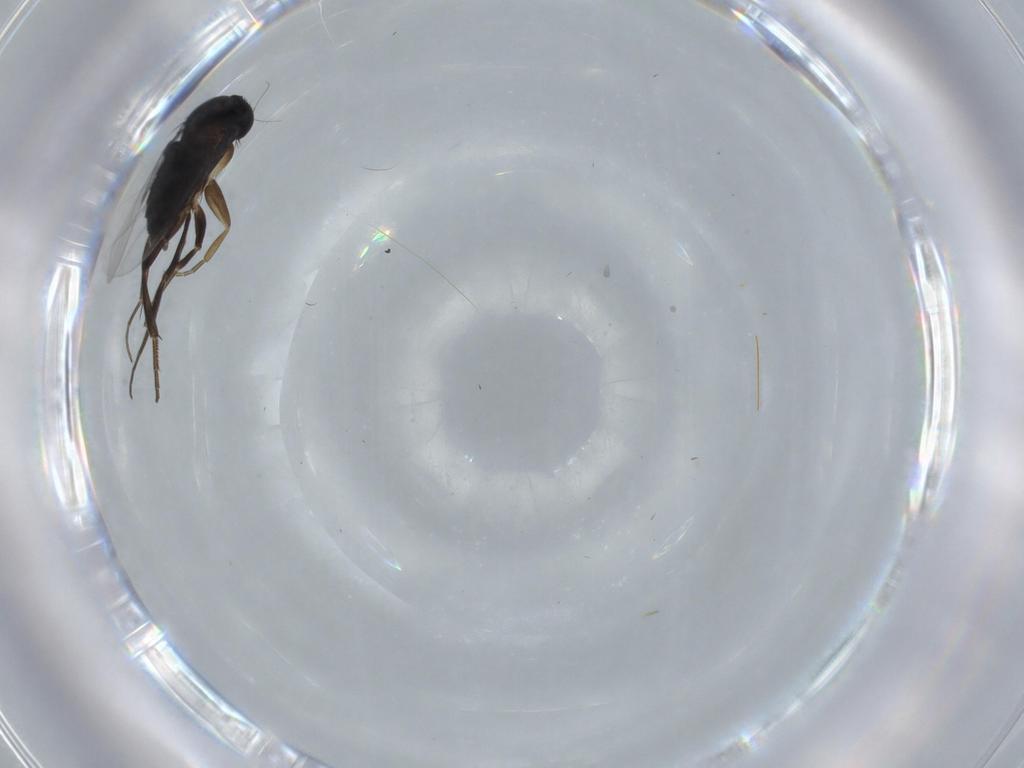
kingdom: Animalia
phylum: Arthropoda
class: Insecta
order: Diptera
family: Phoridae
